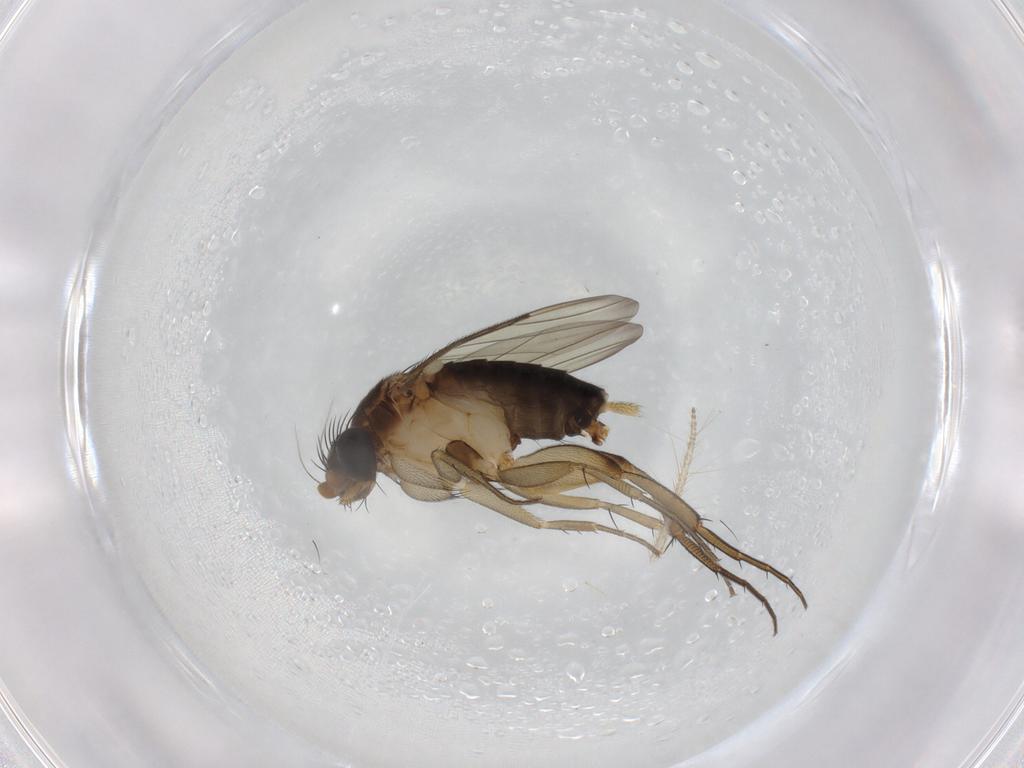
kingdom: Animalia
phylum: Arthropoda
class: Insecta
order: Diptera
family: Phoridae
